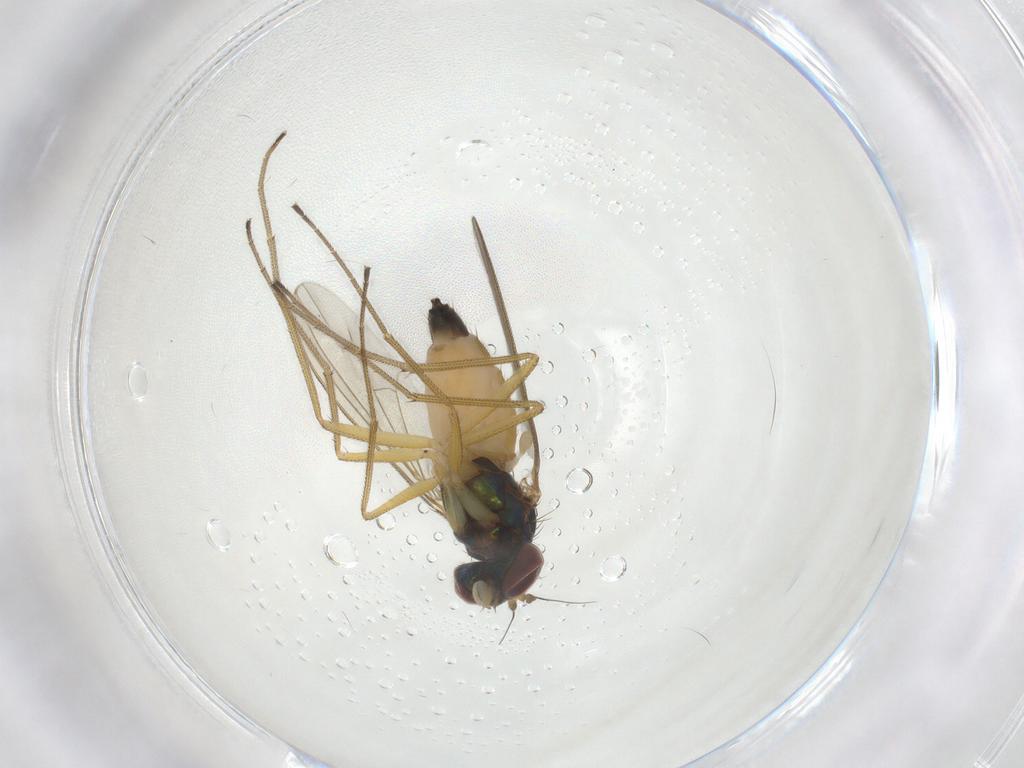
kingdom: Animalia
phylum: Arthropoda
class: Insecta
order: Diptera
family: Dolichopodidae
